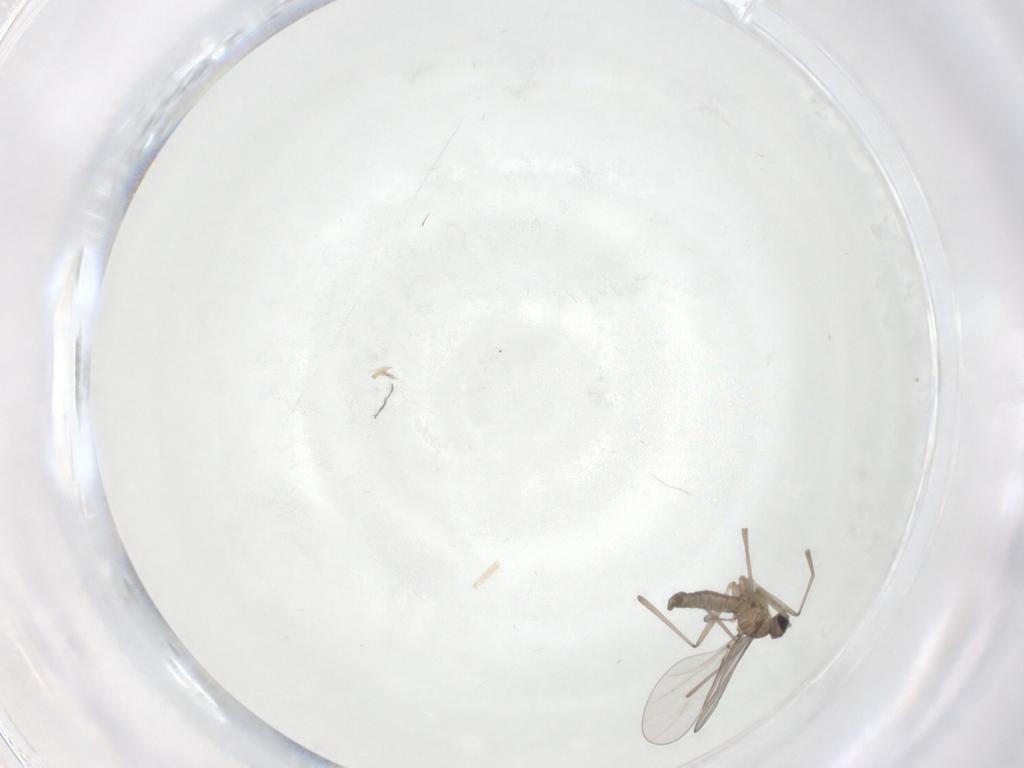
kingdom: Animalia
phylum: Arthropoda
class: Insecta
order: Diptera
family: Cecidomyiidae
